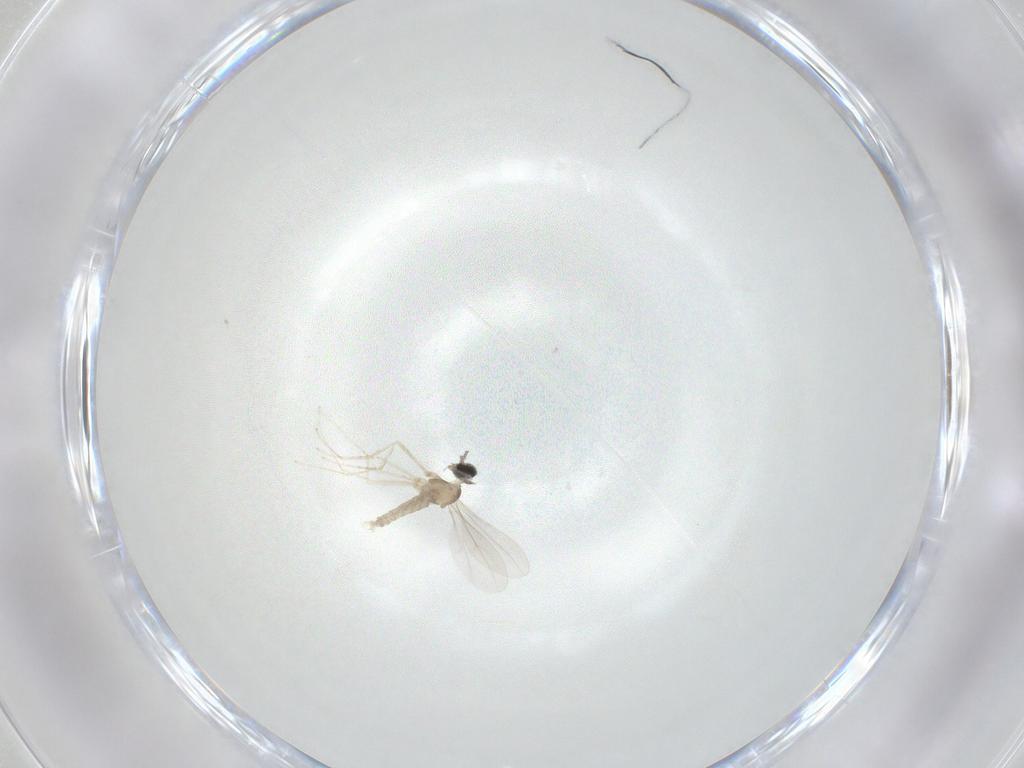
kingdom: Animalia
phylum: Arthropoda
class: Insecta
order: Diptera
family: Cecidomyiidae
